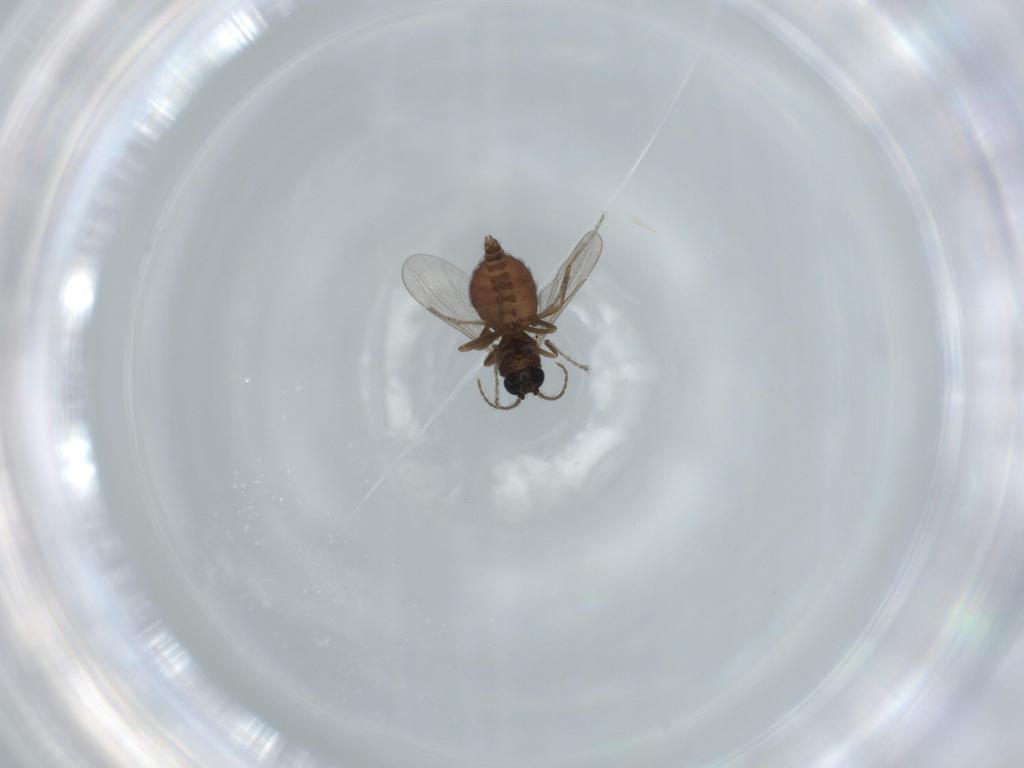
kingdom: Animalia
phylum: Arthropoda
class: Insecta
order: Diptera
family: Ceratopogonidae
